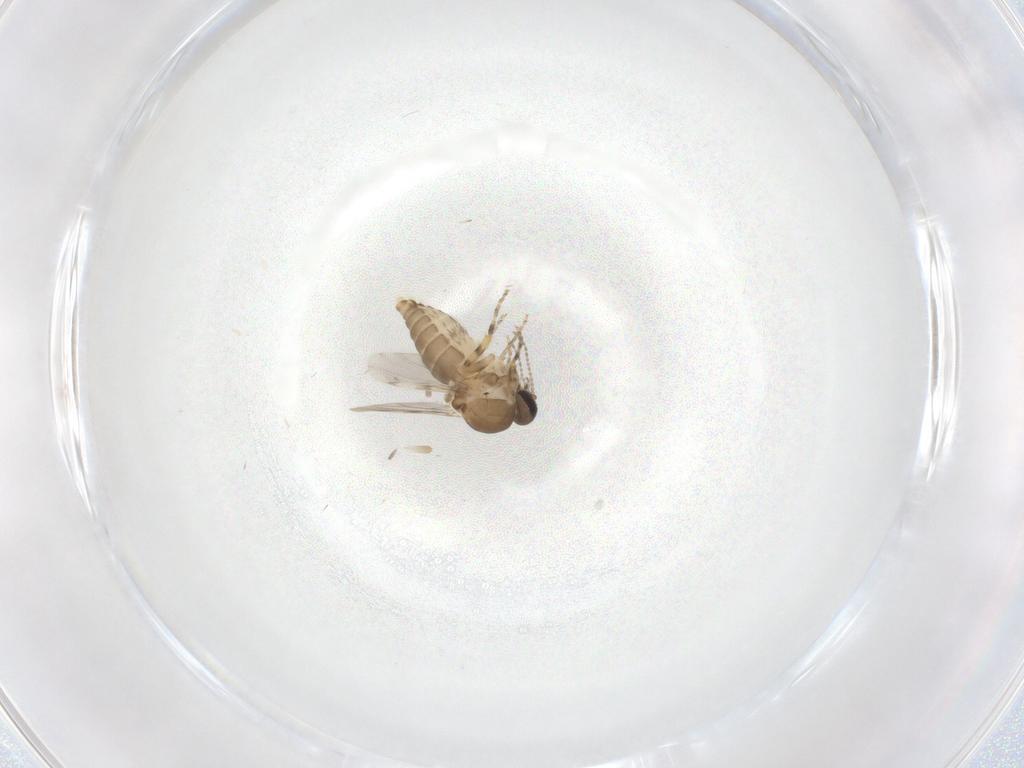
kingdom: Animalia
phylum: Arthropoda
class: Insecta
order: Diptera
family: Ceratopogonidae
